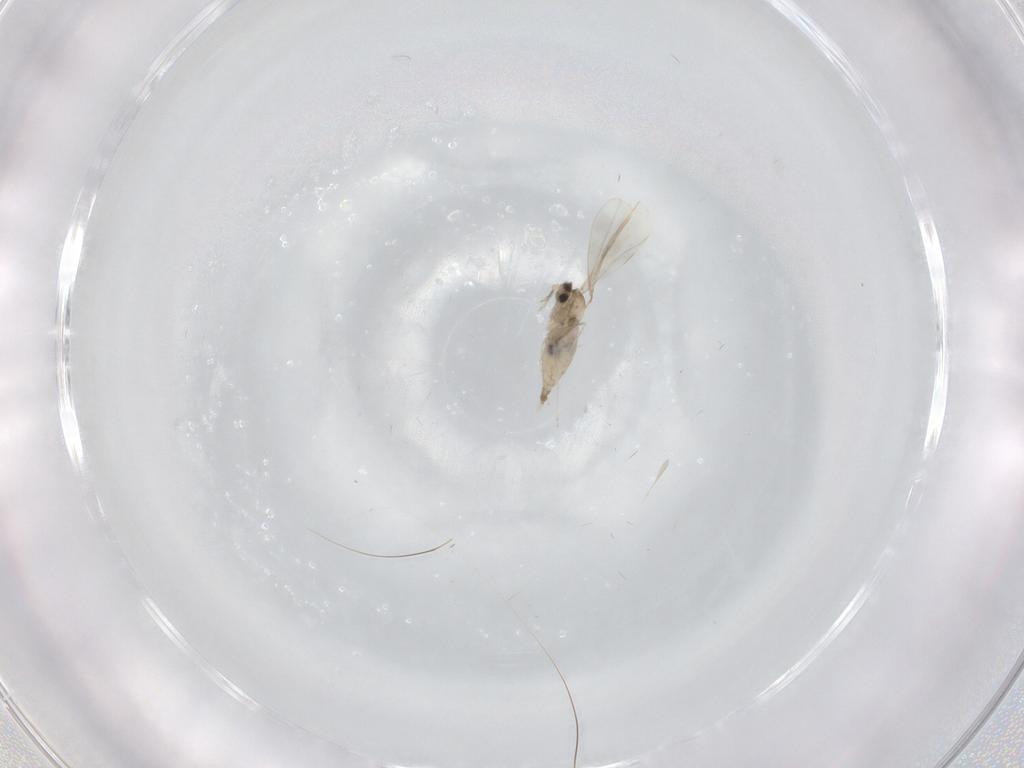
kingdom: Animalia
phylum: Arthropoda
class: Insecta
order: Diptera
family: Cecidomyiidae
